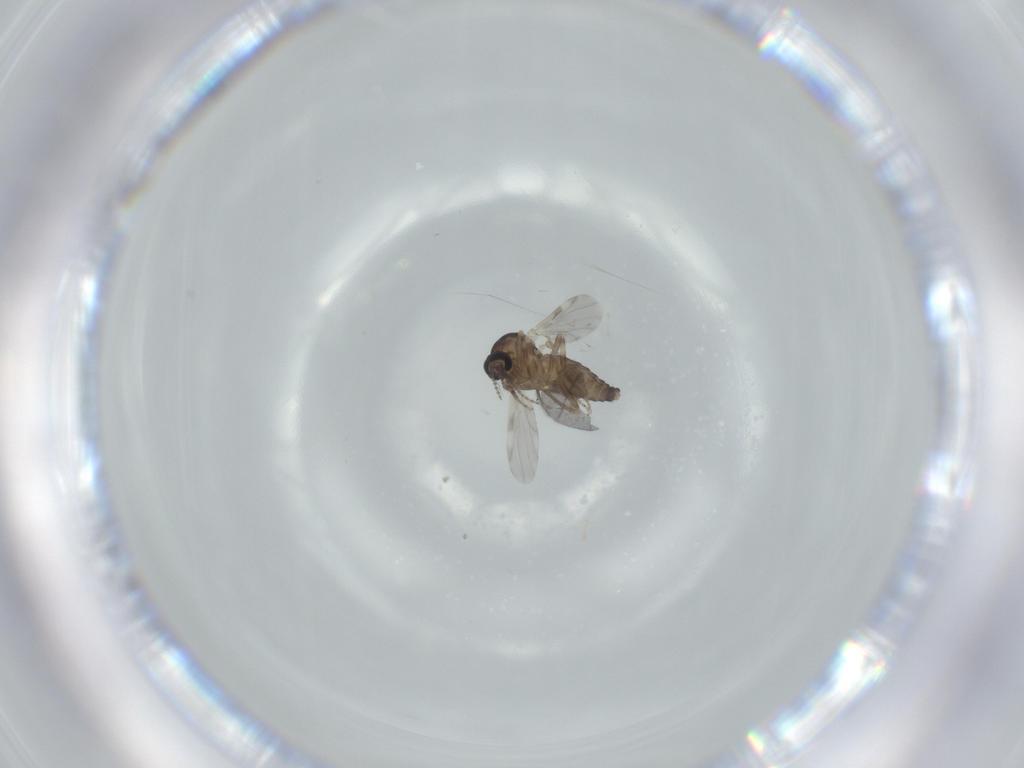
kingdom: Animalia
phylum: Arthropoda
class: Insecta
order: Diptera
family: Ceratopogonidae
